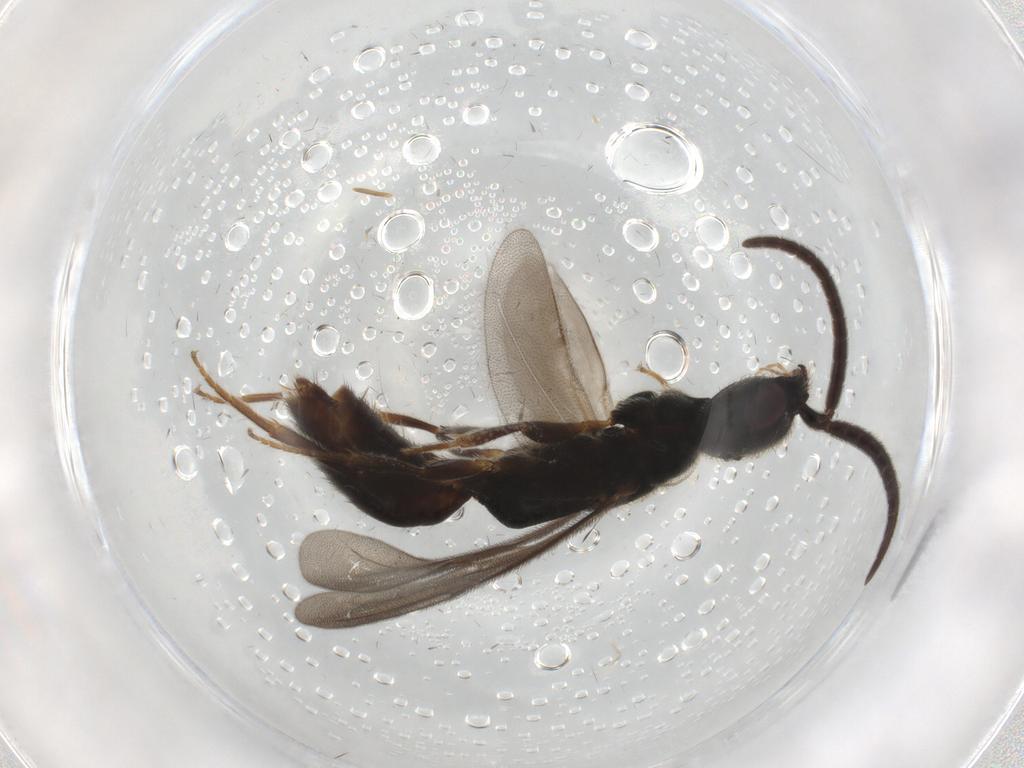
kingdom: Animalia
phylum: Arthropoda
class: Insecta
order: Hymenoptera
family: Bethylidae
